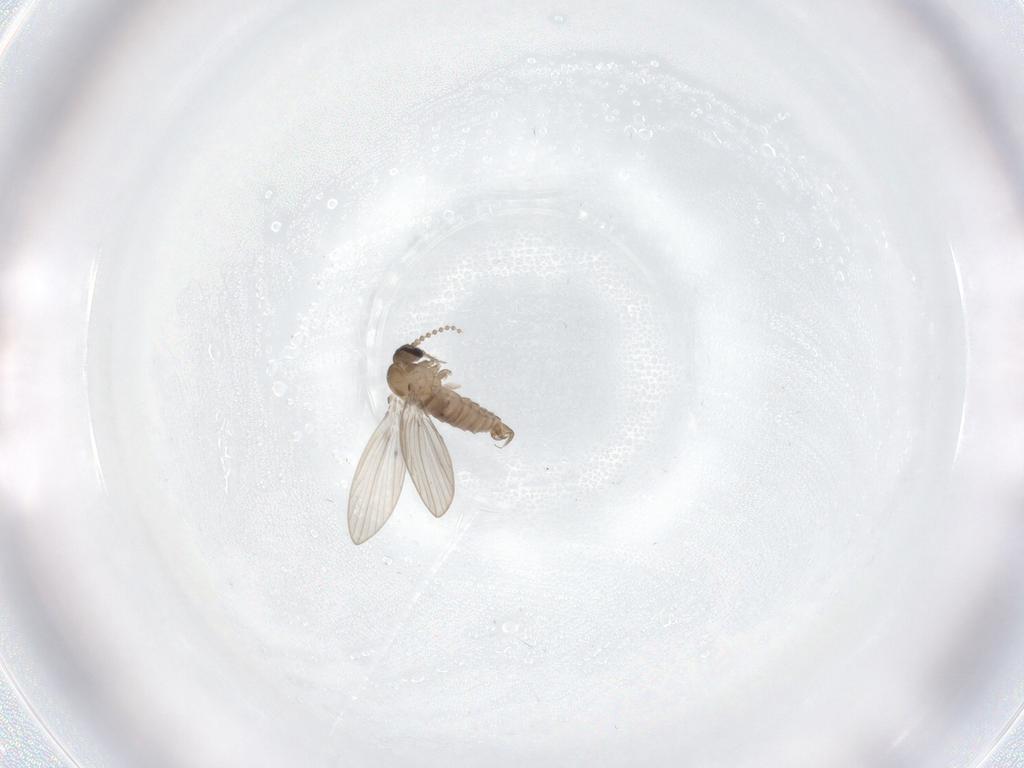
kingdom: Animalia
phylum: Arthropoda
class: Insecta
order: Diptera
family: Psychodidae
